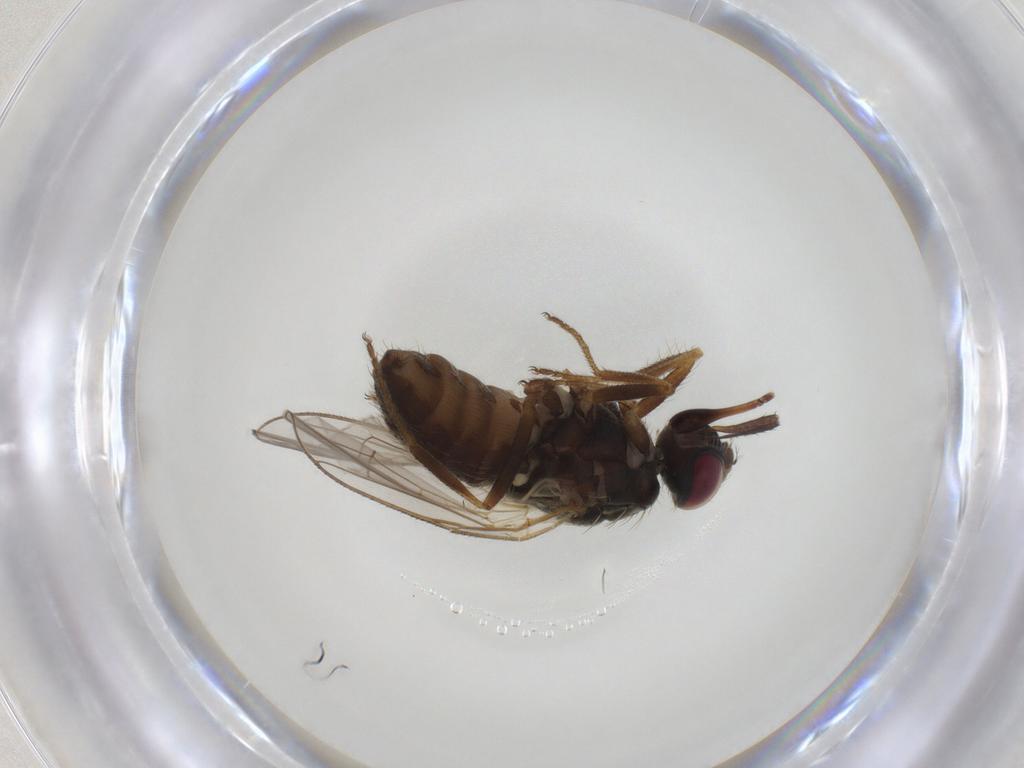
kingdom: Animalia
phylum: Arthropoda
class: Insecta
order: Diptera
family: Muscidae
